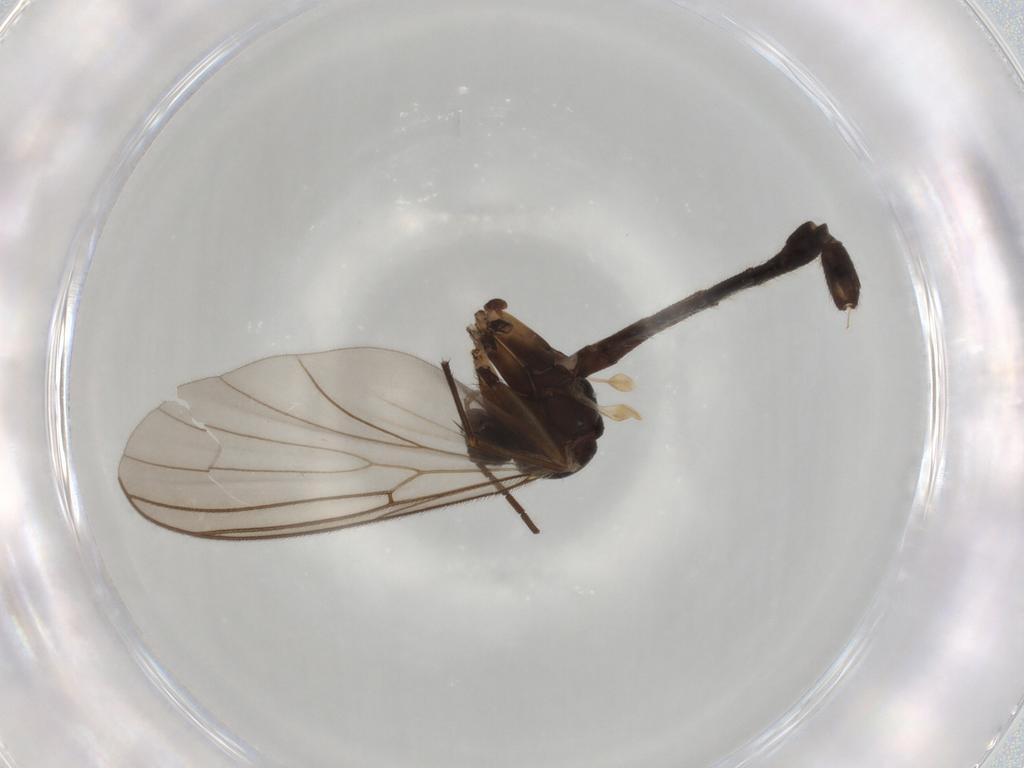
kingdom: Animalia
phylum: Arthropoda
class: Insecta
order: Diptera
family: Mycetophilidae
